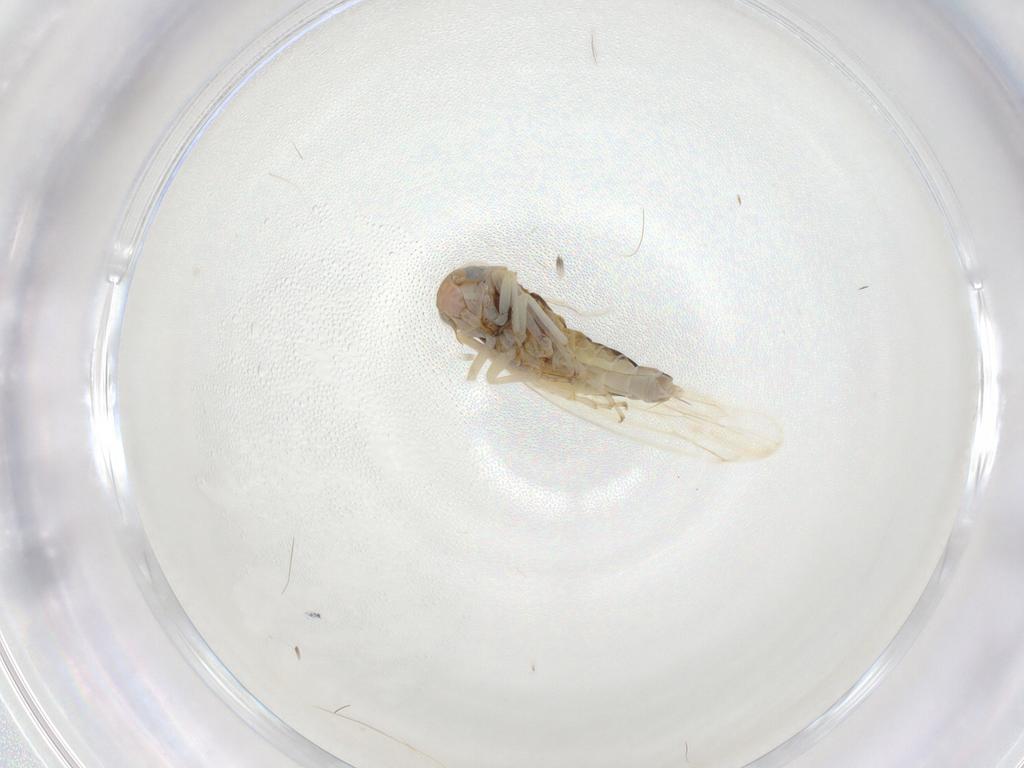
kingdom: Animalia
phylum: Arthropoda
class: Insecta
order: Hemiptera
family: Cicadellidae
